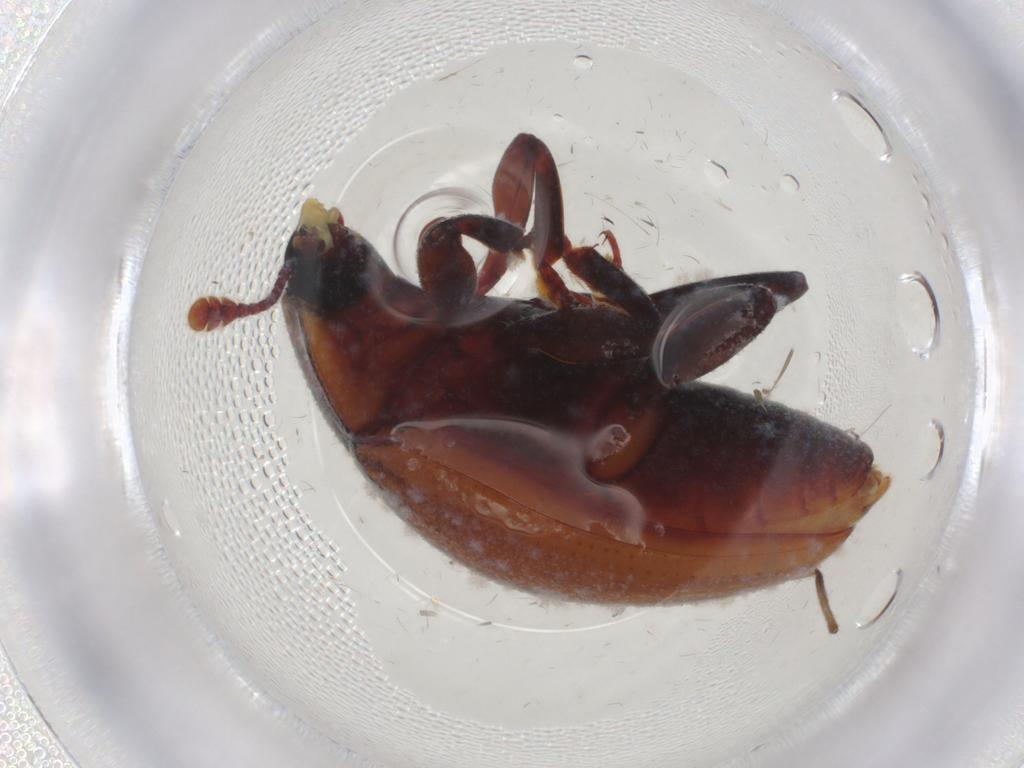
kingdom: Animalia
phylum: Arthropoda
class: Insecta
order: Coleoptera
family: Zopheridae
